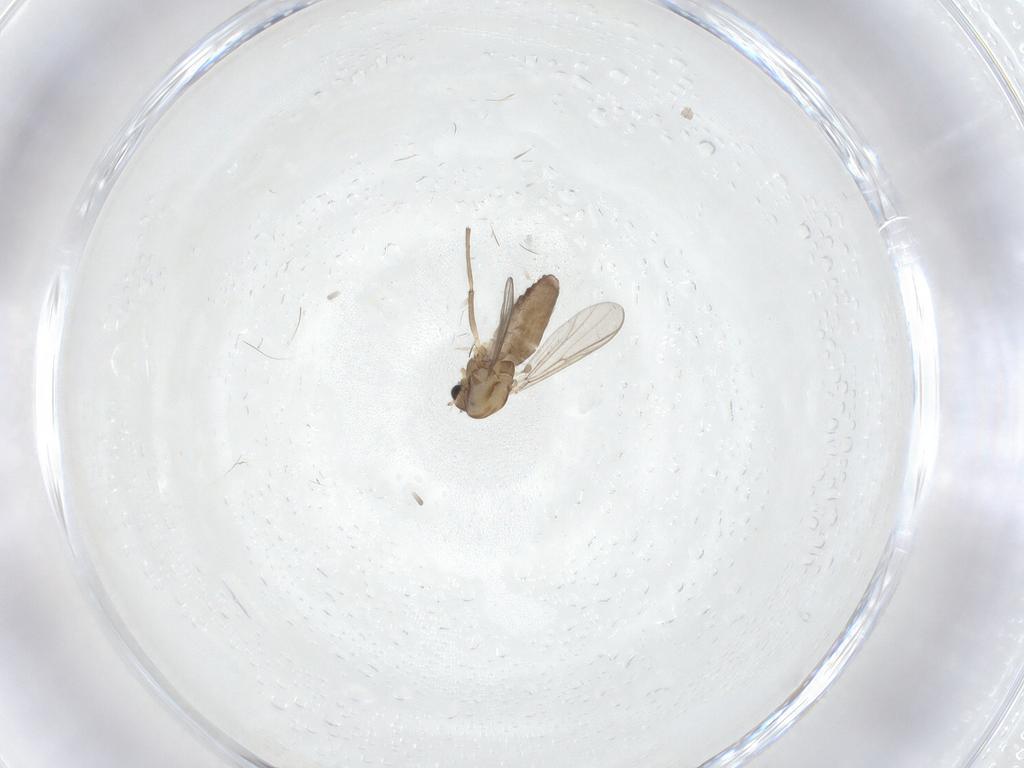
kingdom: Animalia
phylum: Arthropoda
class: Insecta
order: Diptera
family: Chironomidae
